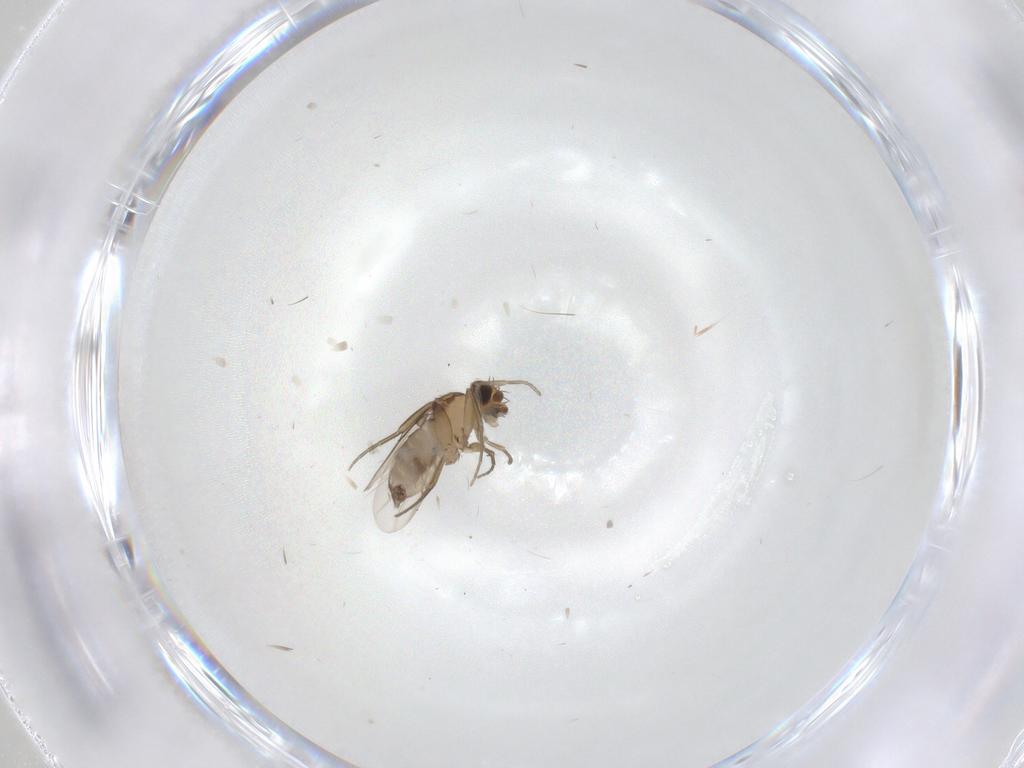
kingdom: Animalia
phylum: Arthropoda
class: Insecta
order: Diptera
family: Phoridae
